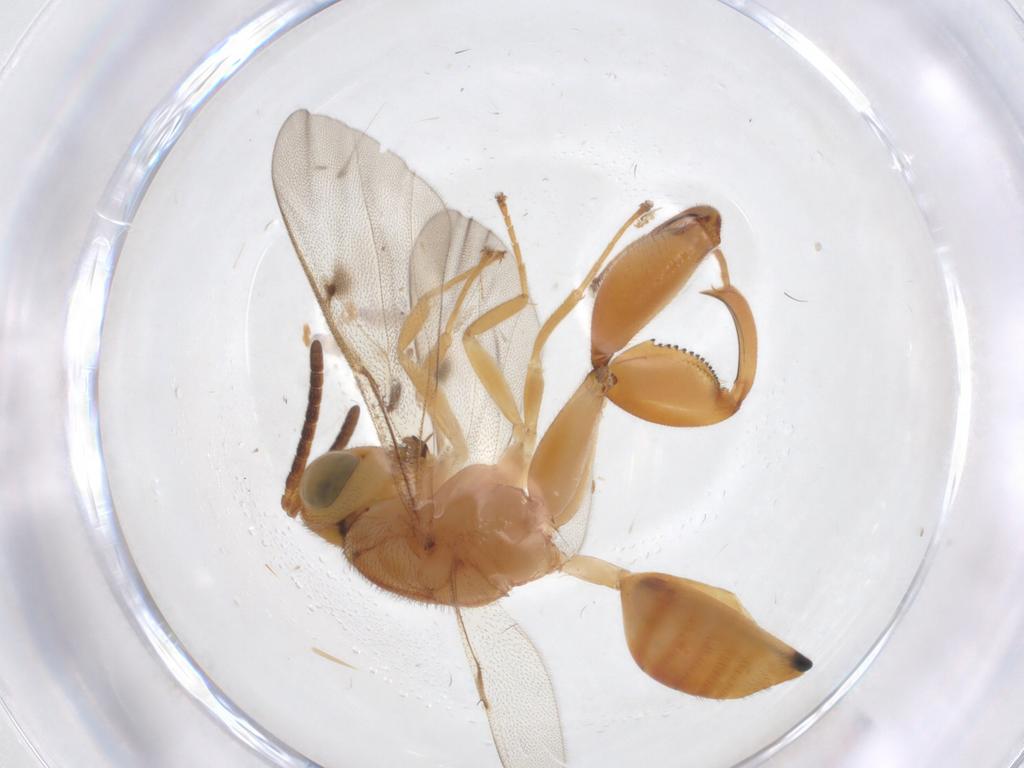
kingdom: Animalia
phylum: Arthropoda
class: Insecta
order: Hymenoptera
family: Chalcididae
